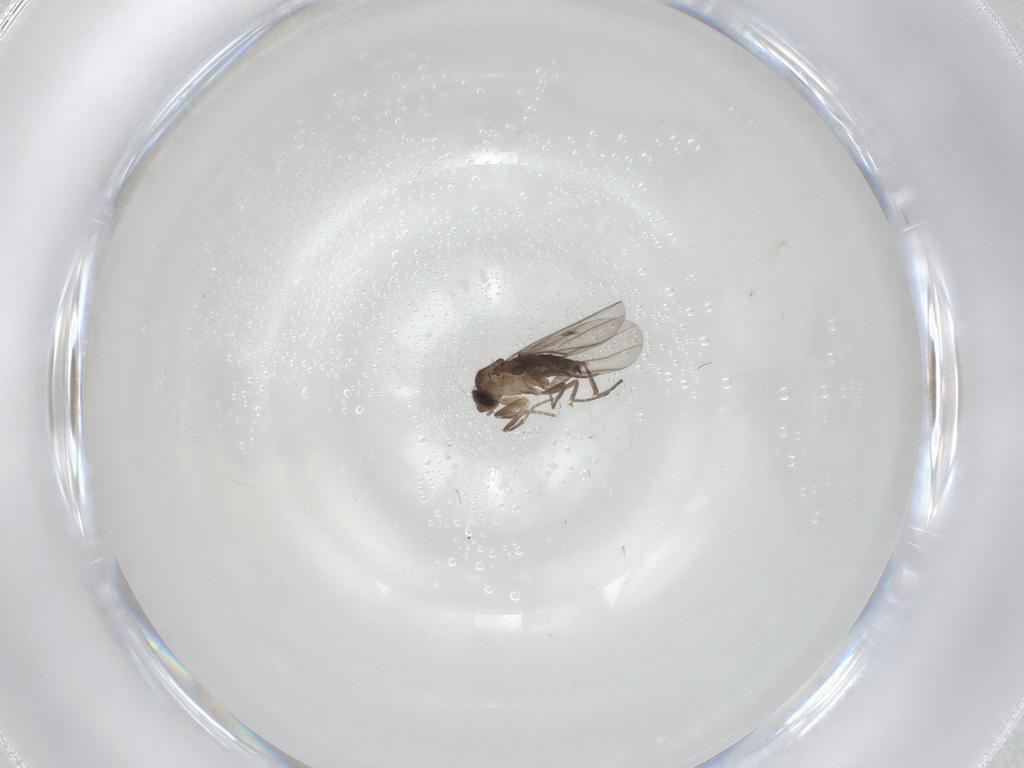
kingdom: Animalia
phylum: Arthropoda
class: Insecta
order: Diptera
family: Phoridae
